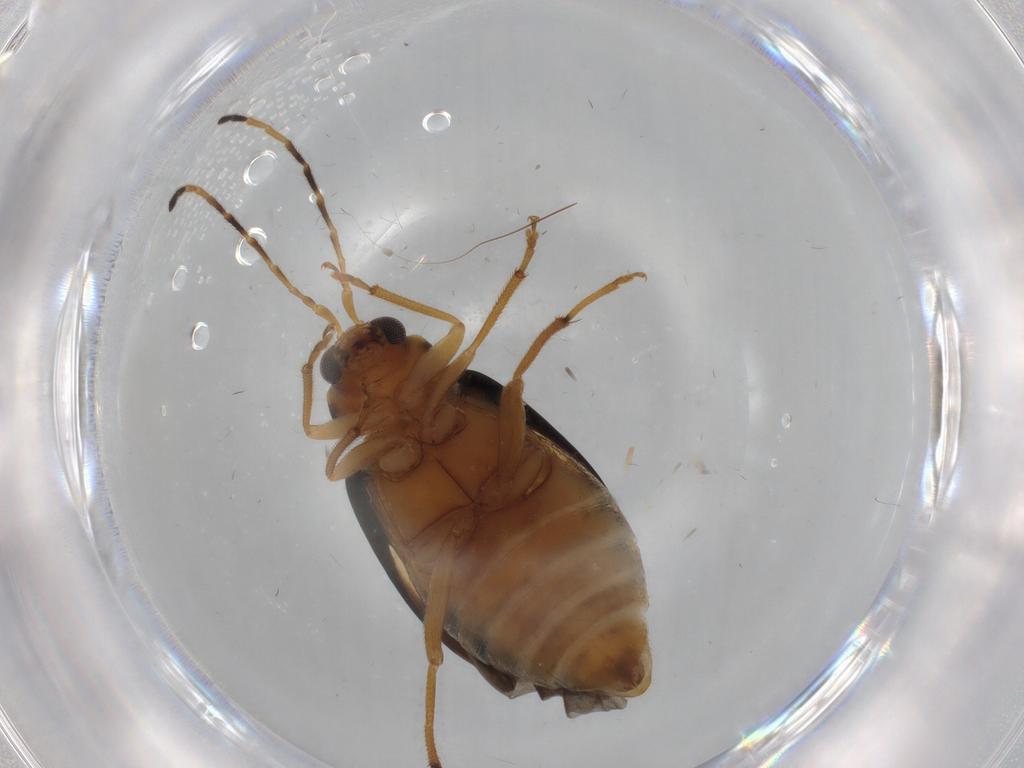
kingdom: Animalia
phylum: Arthropoda
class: Insecta
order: Coleoptera
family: Chrysomelidae
